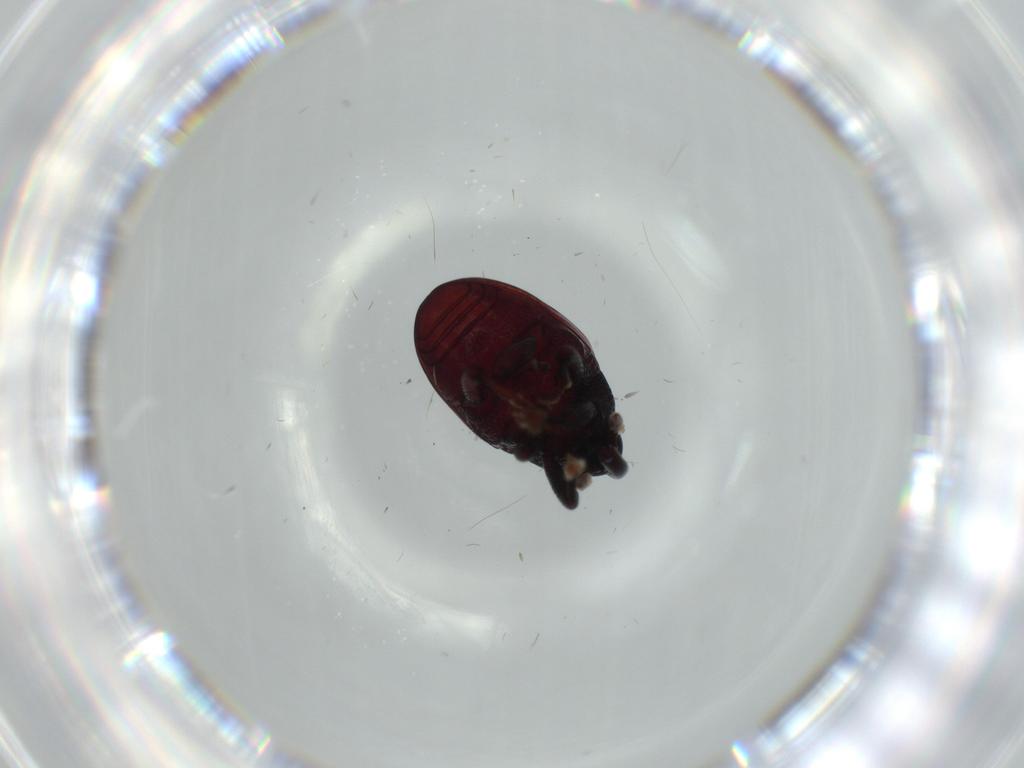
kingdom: Animalia
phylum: Arthropoda
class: Insecta
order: Coleoptera
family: Curculionidae
